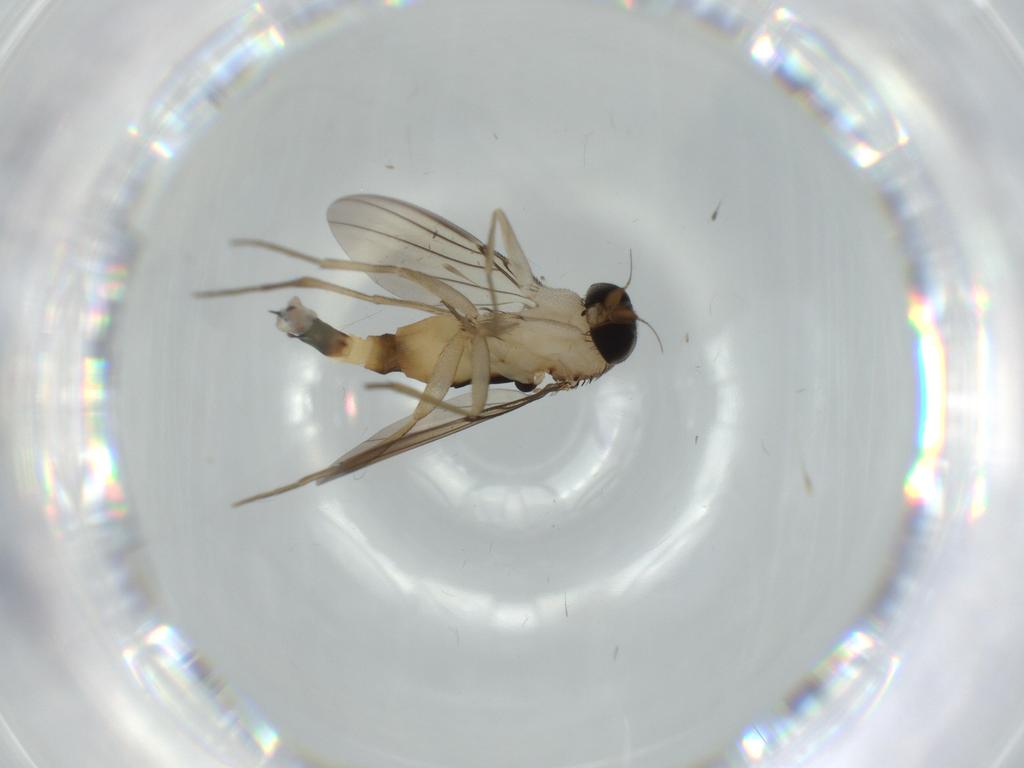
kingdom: Animalia
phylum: Arthropoda
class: Insecta
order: Diptera
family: Phoridae
